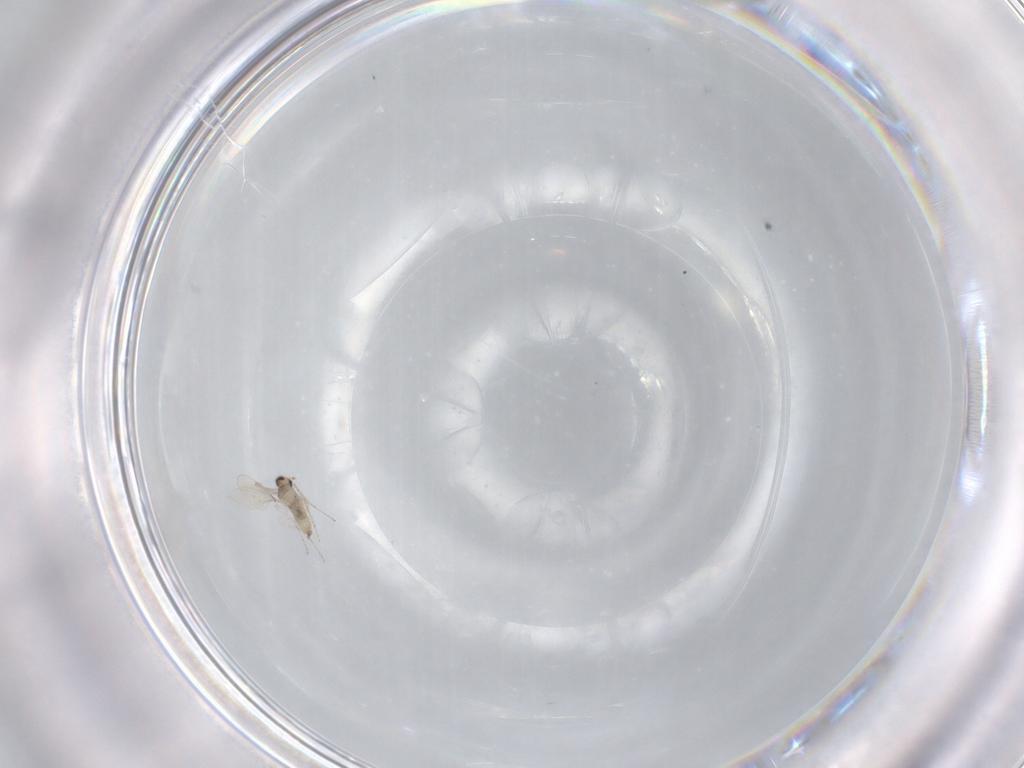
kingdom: Animalia
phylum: Arthropoda
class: Insecta
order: Diptera
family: Cecidomyiidae
